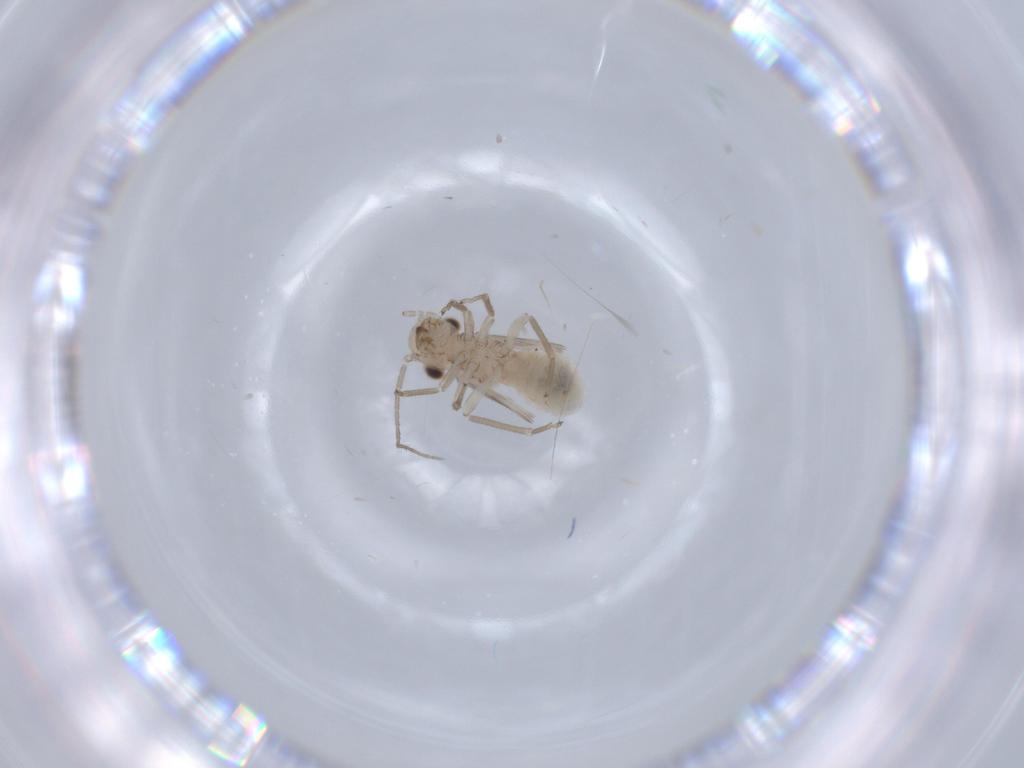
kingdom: Animalia
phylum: Arthropoda
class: Insecta
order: Psocodea
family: Caeciliusidae
